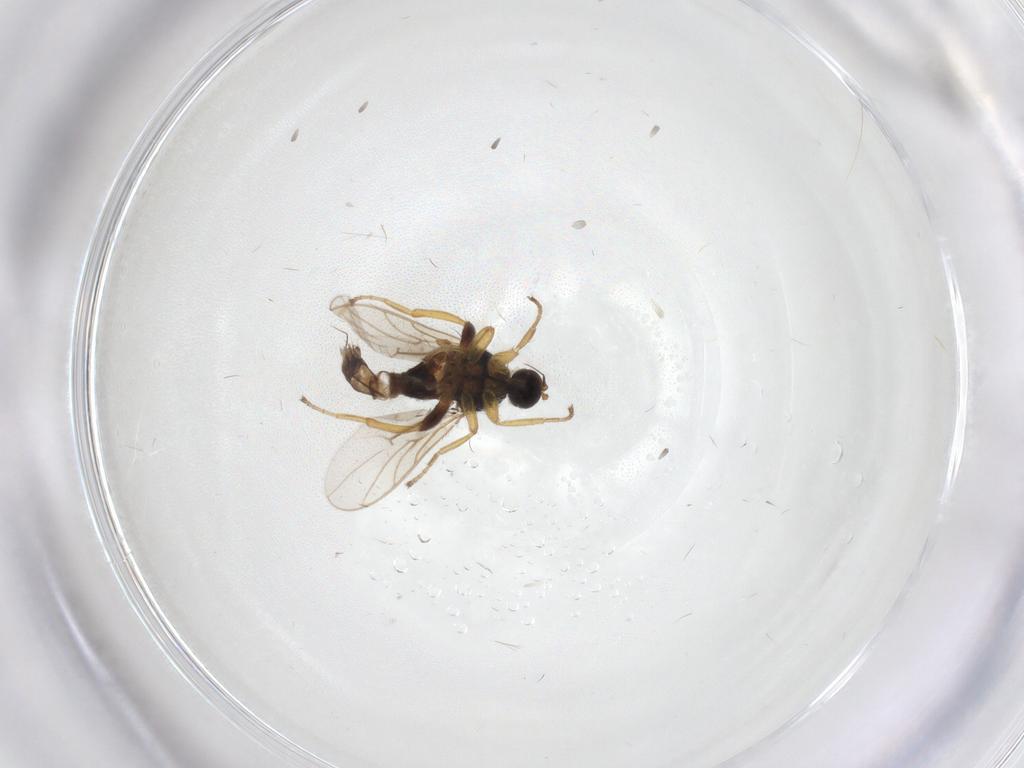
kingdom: Animalia
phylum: Arthropoda
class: Insecta
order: Diptera
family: Hybotidae
